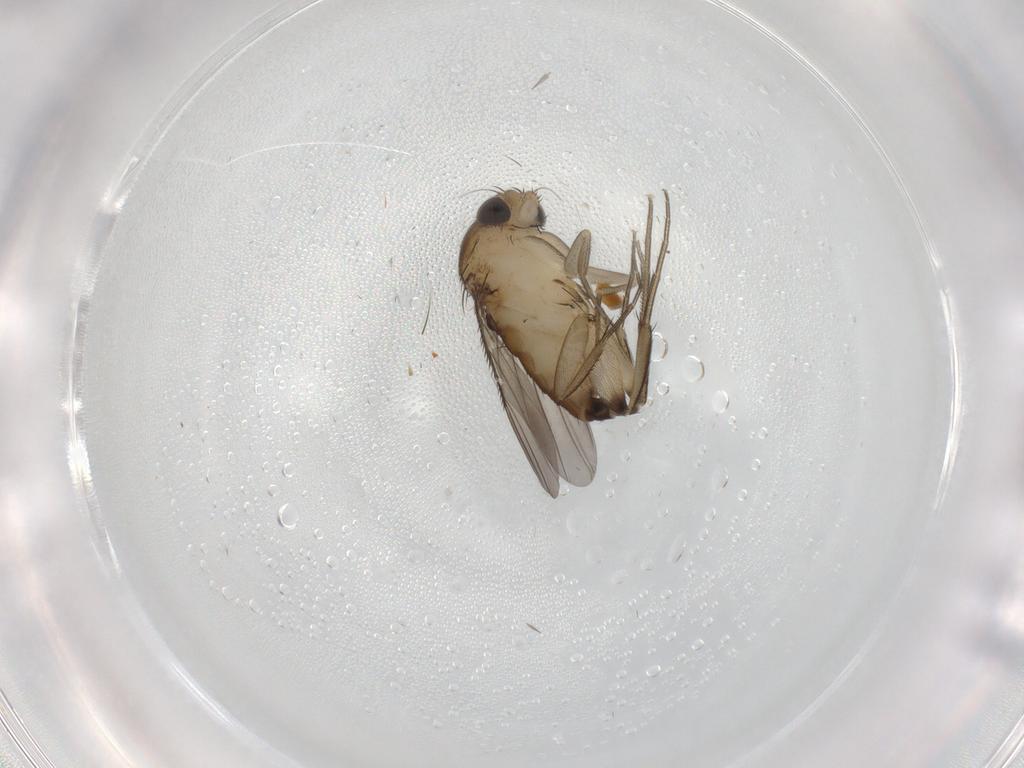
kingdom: Animalia
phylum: Arthropoda
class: Insecta
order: Diptera
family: Phoridae
